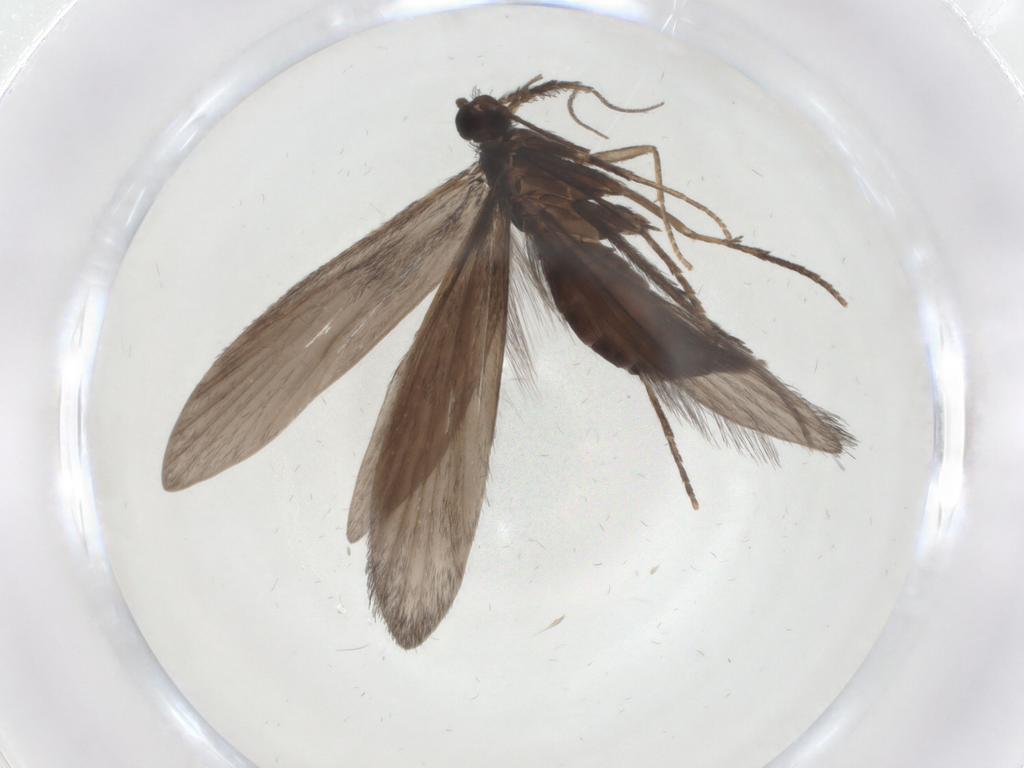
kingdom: Animalia
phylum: Arthropoda
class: Insecta
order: Trichoptera
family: Xiphocentronidae
